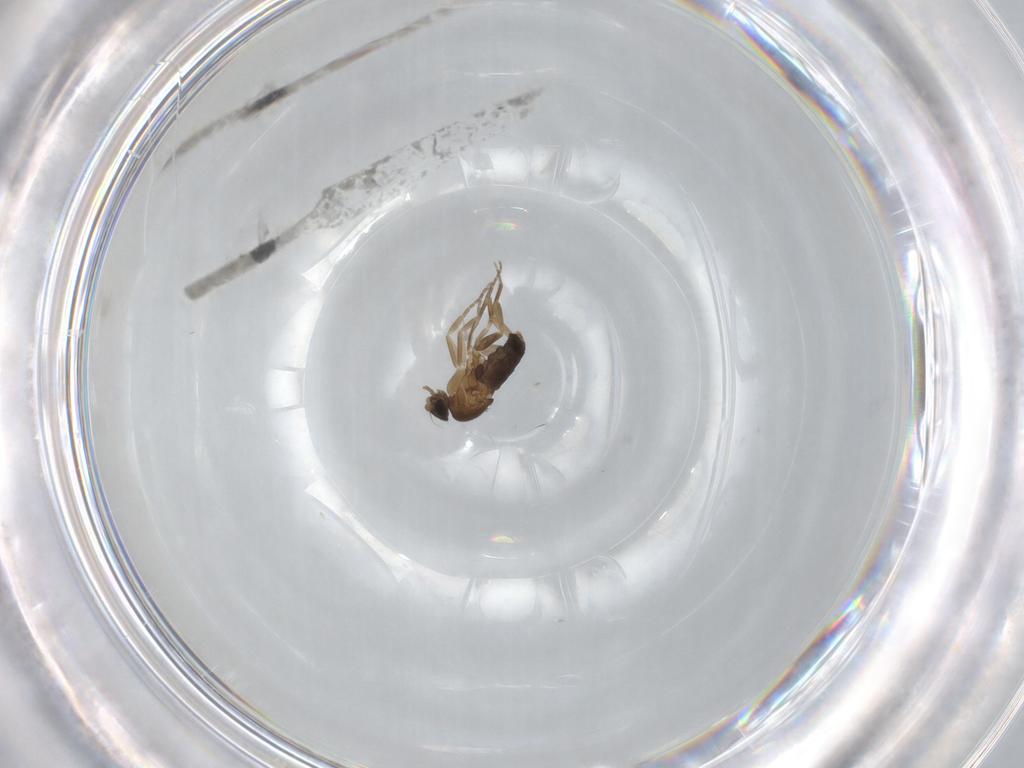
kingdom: Animalia
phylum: Arthropoda
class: Insecta
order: Diptera
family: Phoridae
